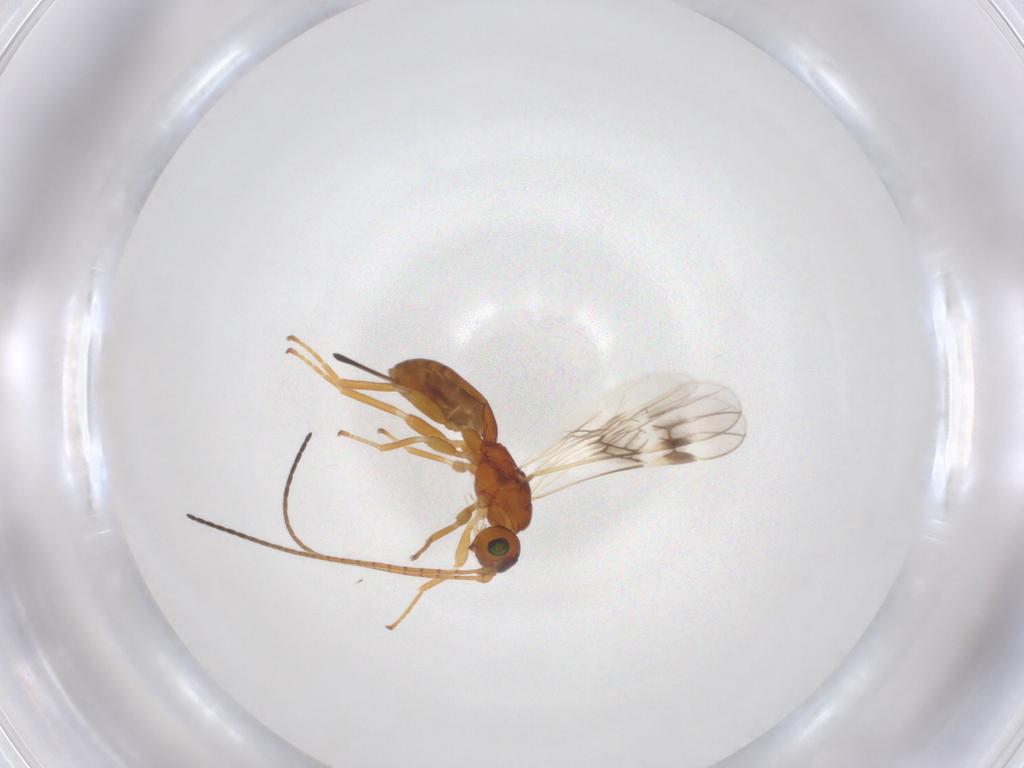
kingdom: Animalia
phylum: Arthropoda
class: Insecta
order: Hymenoptera
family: Braconidae
